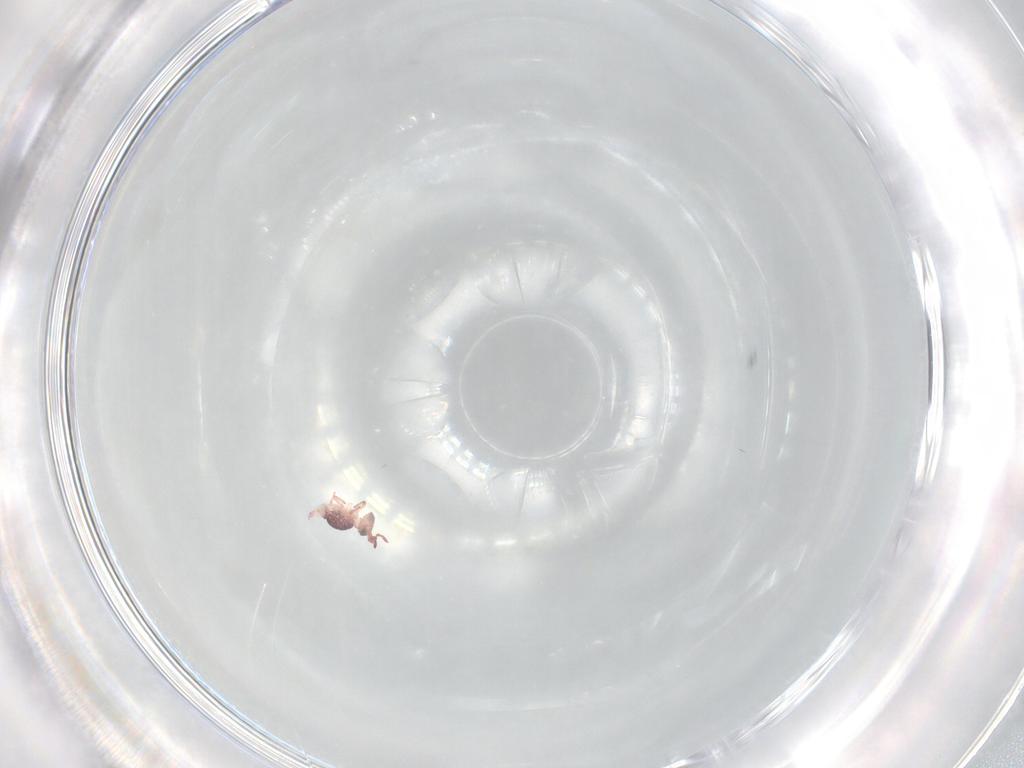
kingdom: Animalia
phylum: Arthropoda
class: Collembola
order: Symphypleona
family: Sminthurididae
